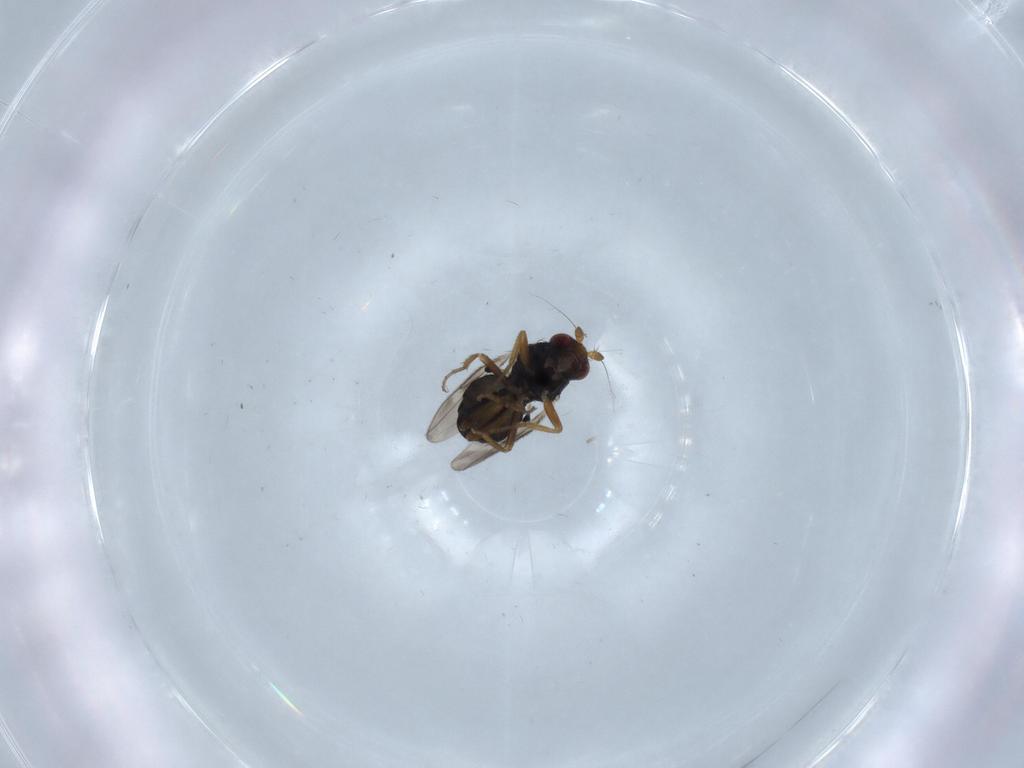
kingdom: Animalia
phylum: Arthropoda
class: Insecta
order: Diptera
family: Sphaeroceridae
